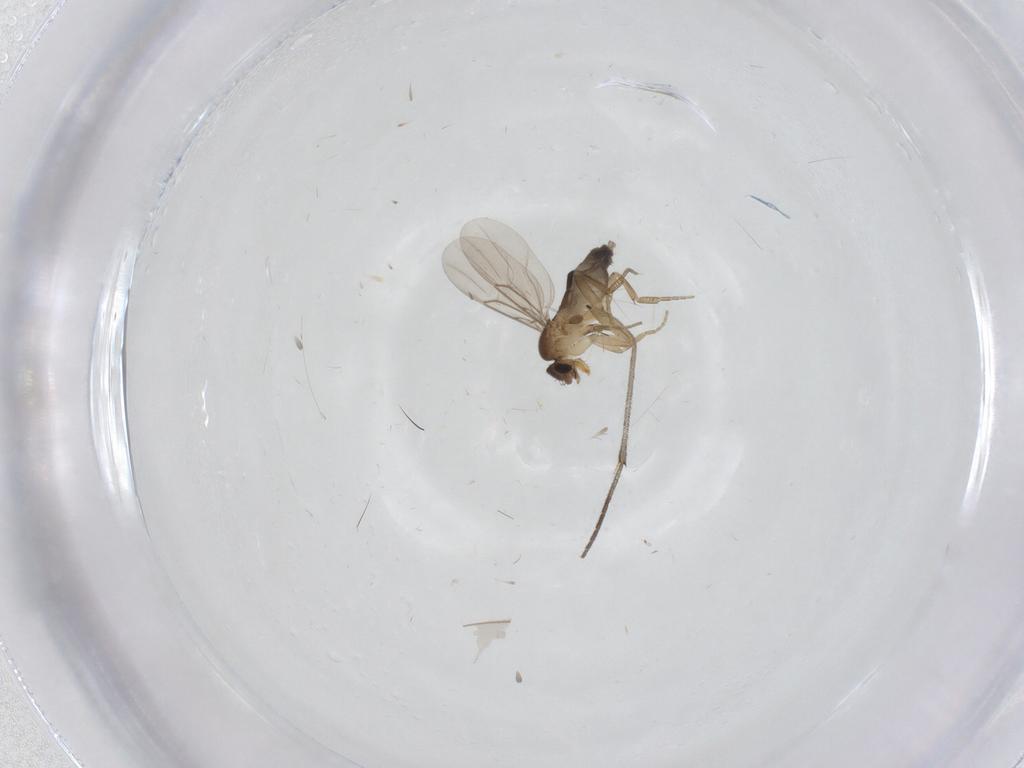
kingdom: Animalia
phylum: Arthropoda
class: Insecta
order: Diptera
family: Phoridae
